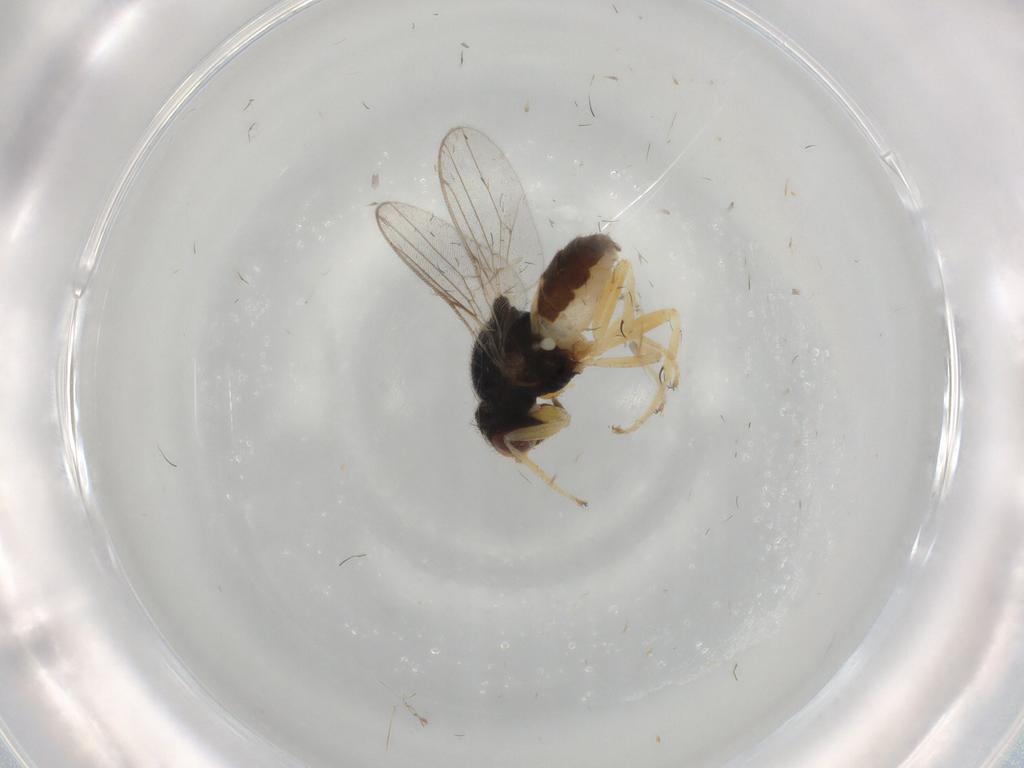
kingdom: Animalia
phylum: Arthropoda
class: Insecta
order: Diptera
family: Chloropidae
